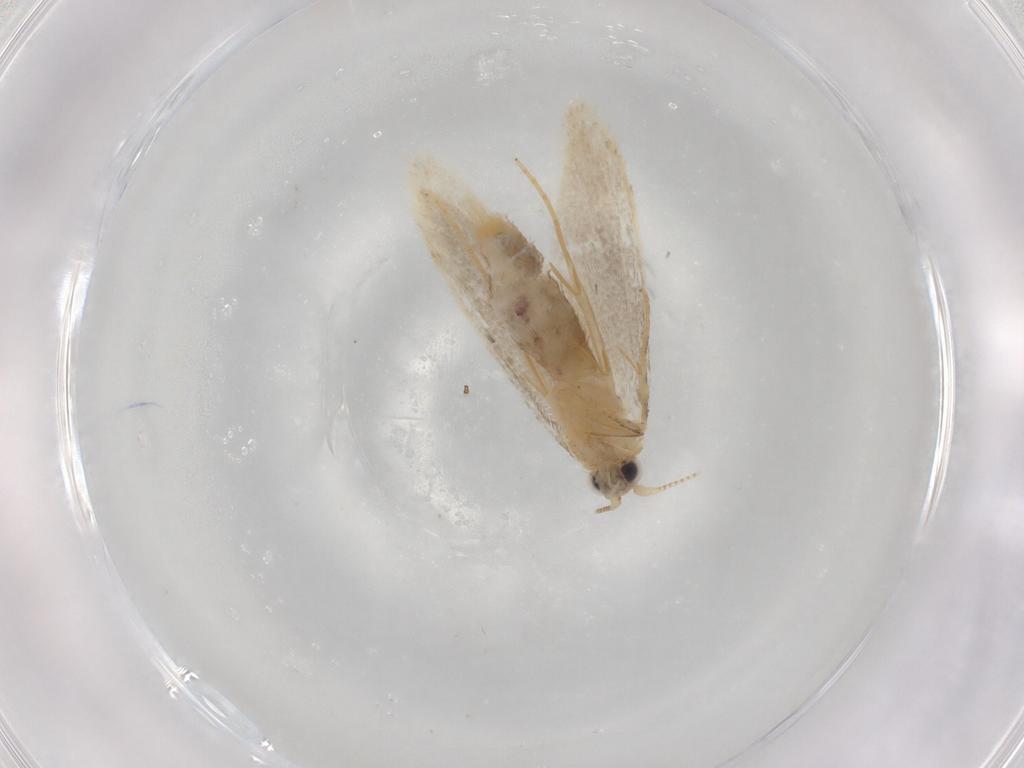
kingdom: Animalia
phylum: Arthropoda
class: Insecta
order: Lepidoptera
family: Nepticulidae
